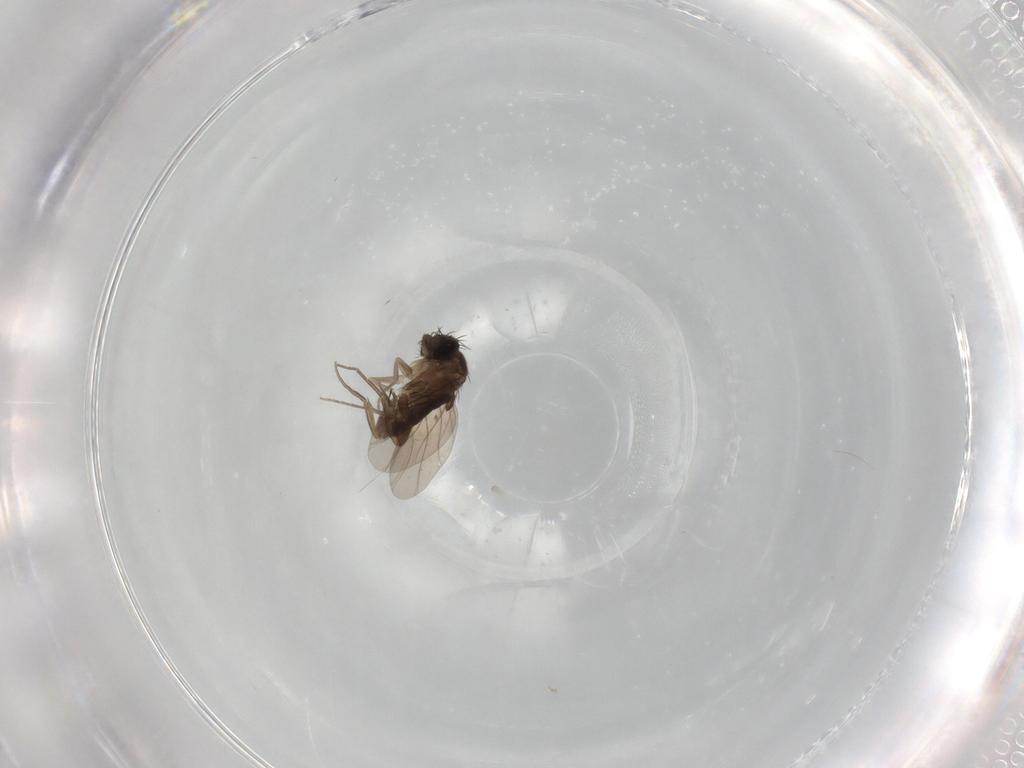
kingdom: Animalia
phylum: Arthropoda
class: Insecta
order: Diptera
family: Phoridae
